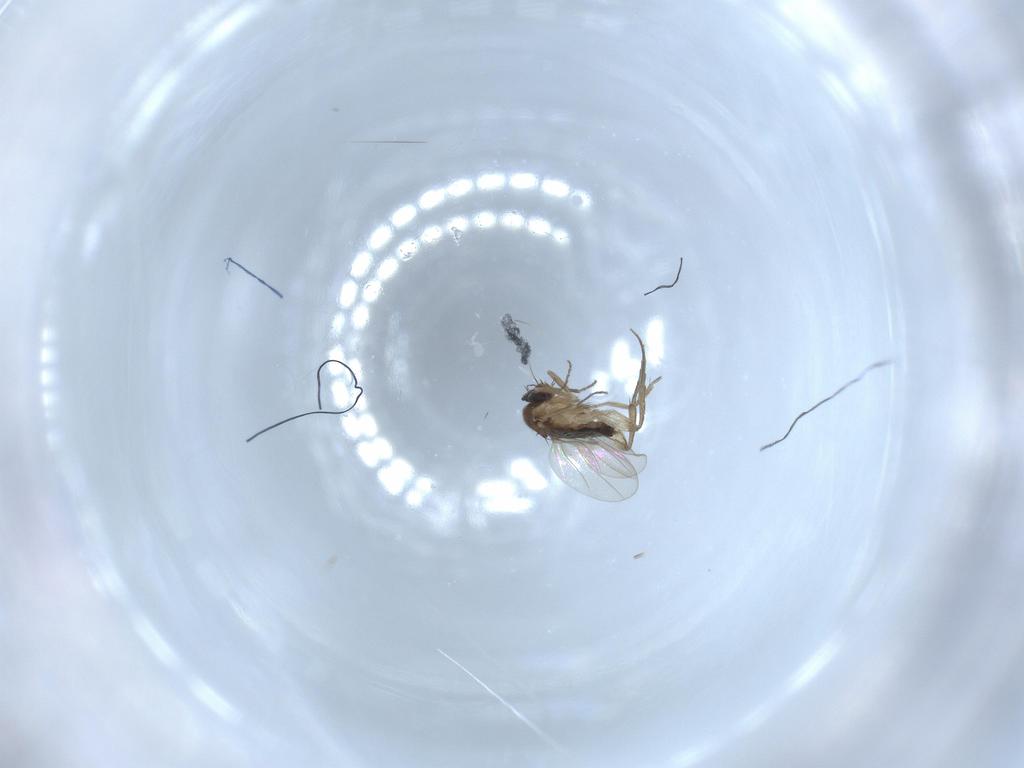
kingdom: Animalia
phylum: Arthropoda
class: Insecta
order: Diptera
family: Phoridae
